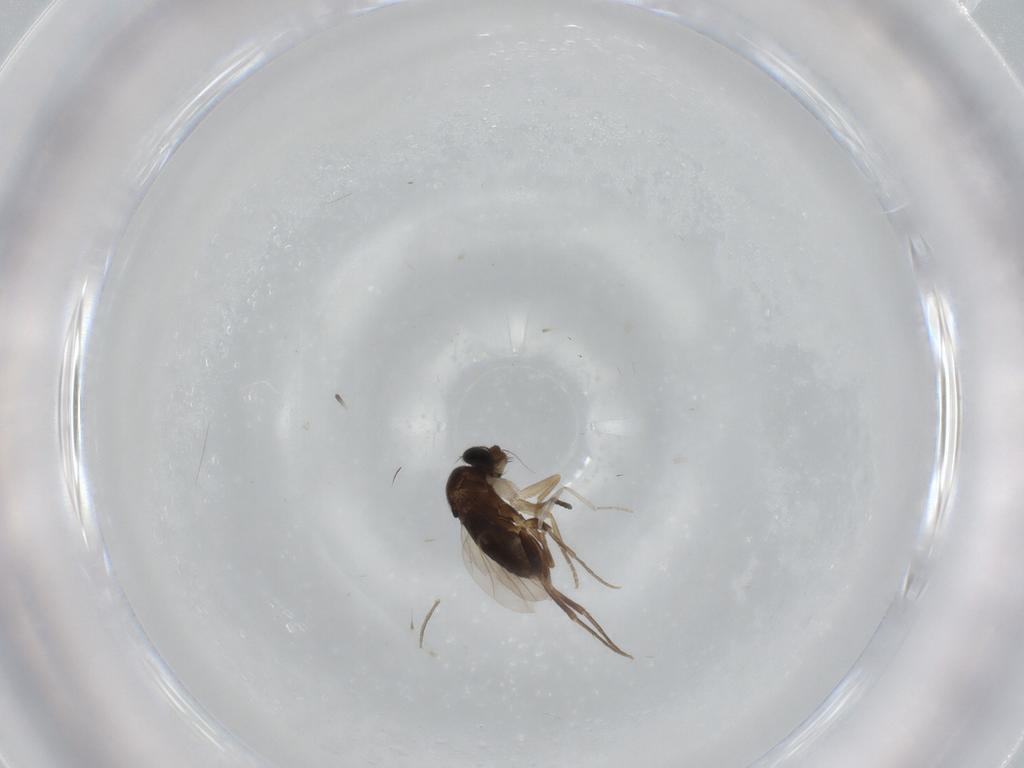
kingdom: Animalia
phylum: Arthropoda
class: Insecta
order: Diptera
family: Phoridae
